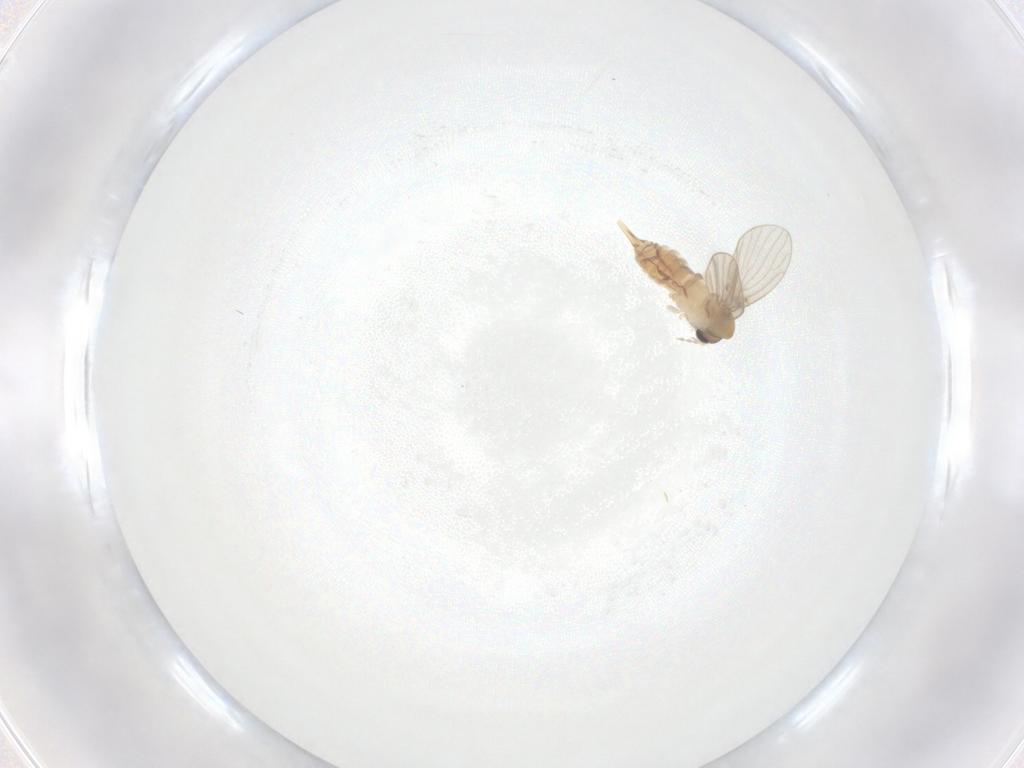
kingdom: Animalia
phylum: Arthropoda
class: Insecta
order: Diptera
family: Psychodidae
